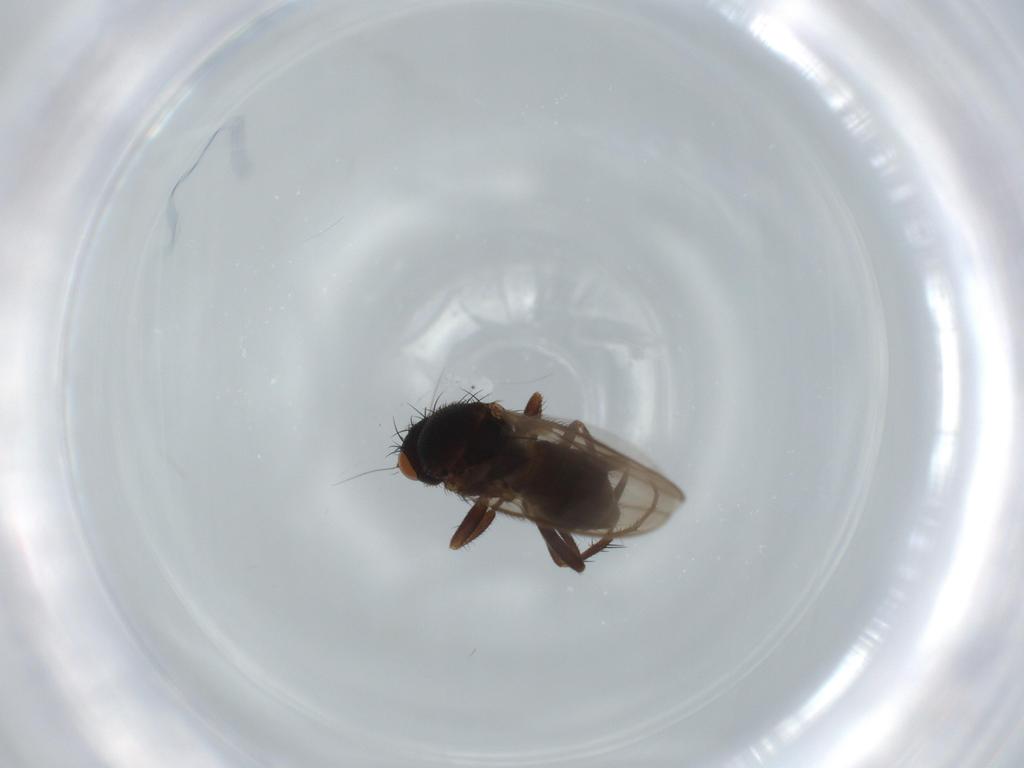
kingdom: Animalia
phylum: Arthropoda
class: Insecta
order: Diptera
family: Sphaeroceridae
